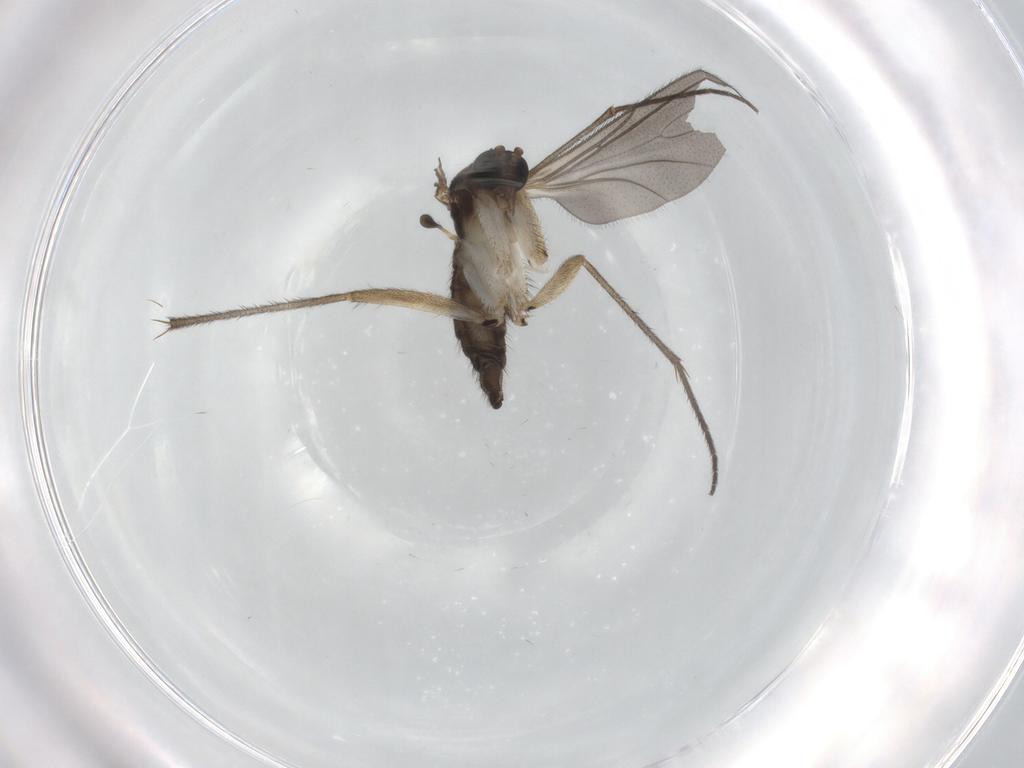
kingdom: Animalia
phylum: Arthropoda
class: Insecta
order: Diptera
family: Sciaridae
